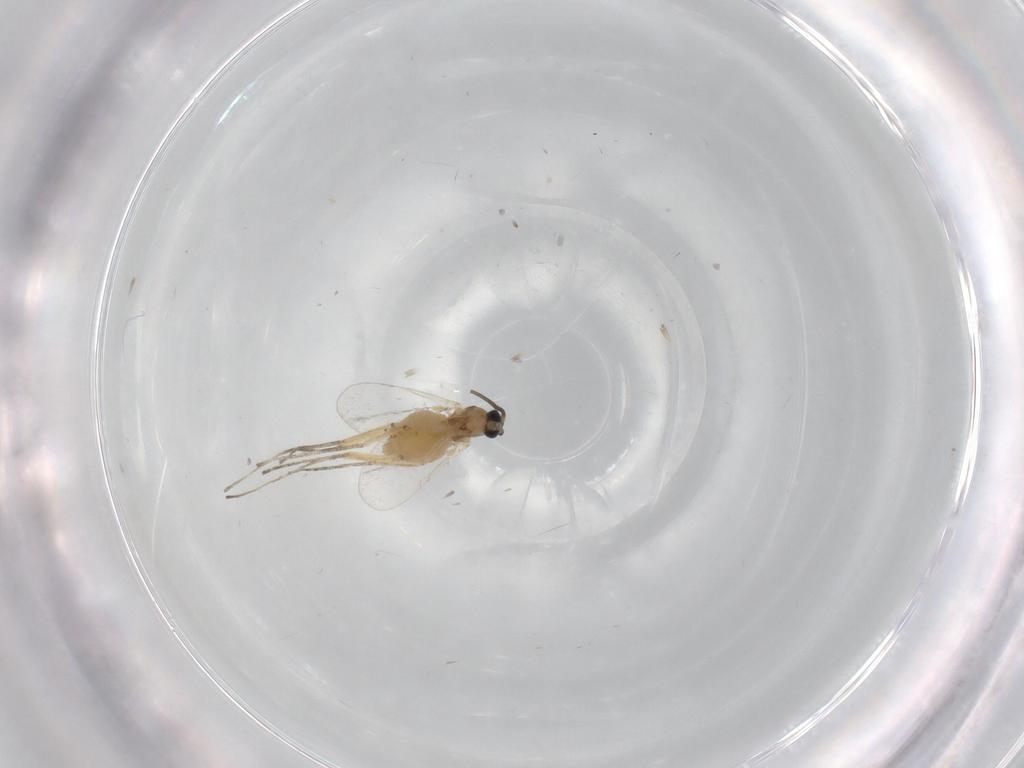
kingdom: Animalia
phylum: Arthropoda
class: Insecta
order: Diptera
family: Cecidomyiidae
